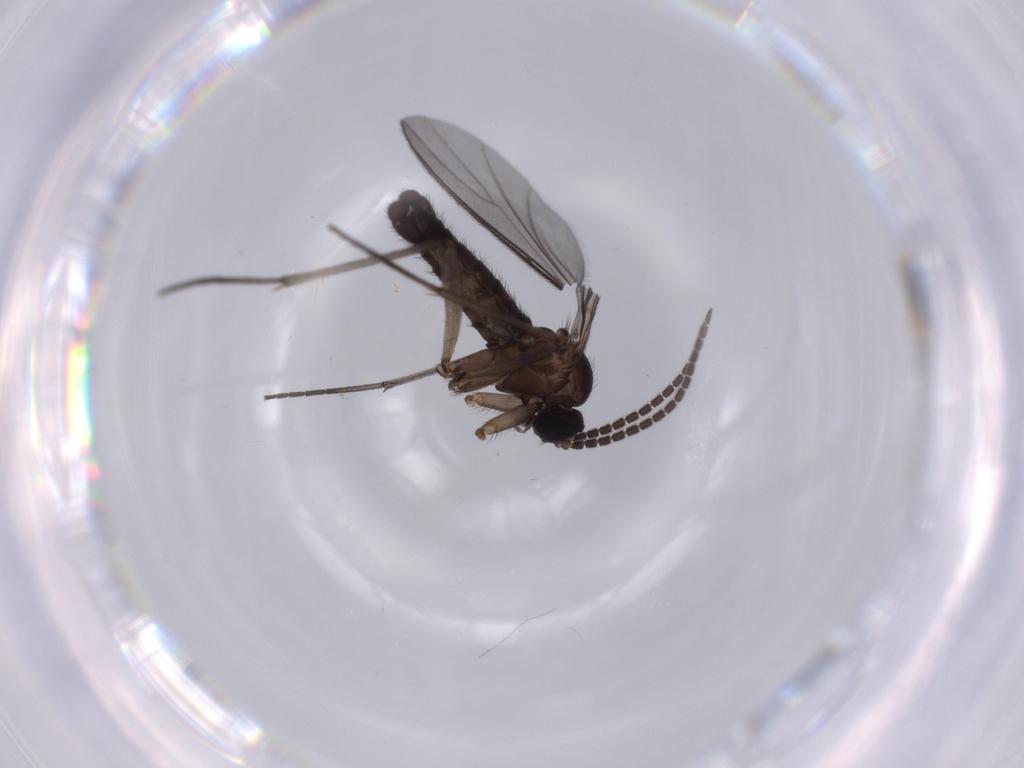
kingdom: Animalia
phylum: Arthropoda
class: Insecta
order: Diptera
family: Sciaridae
